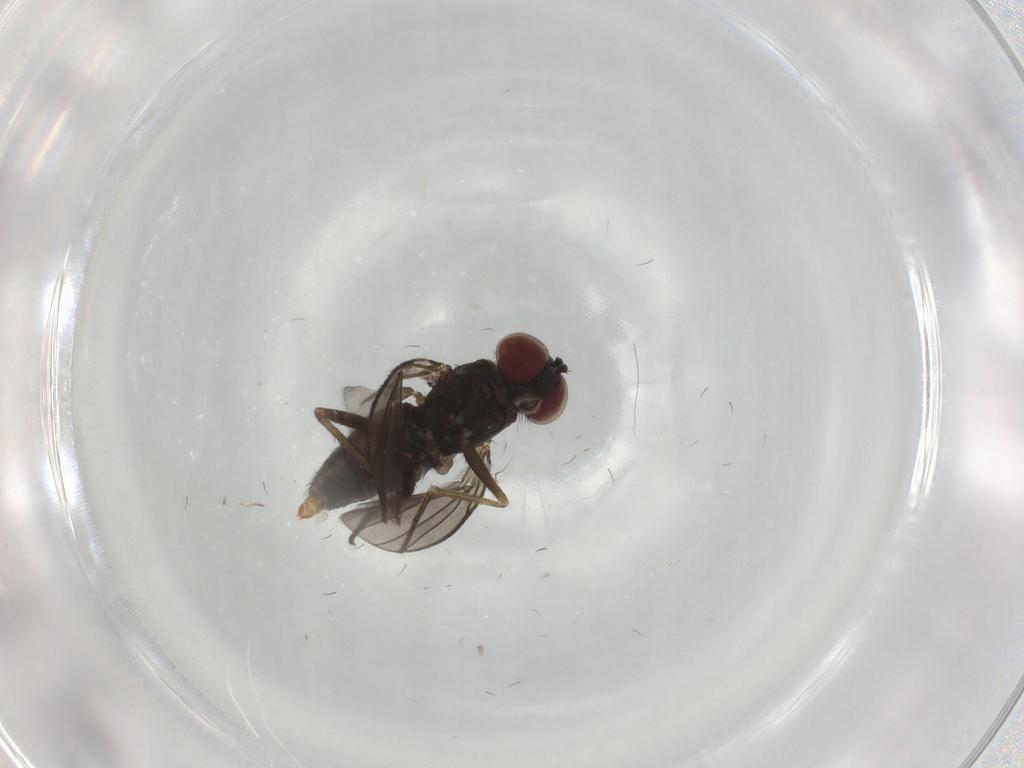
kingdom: Animalia
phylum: Arthropoda
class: Insecta
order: Diptera
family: Dolichopodidae
